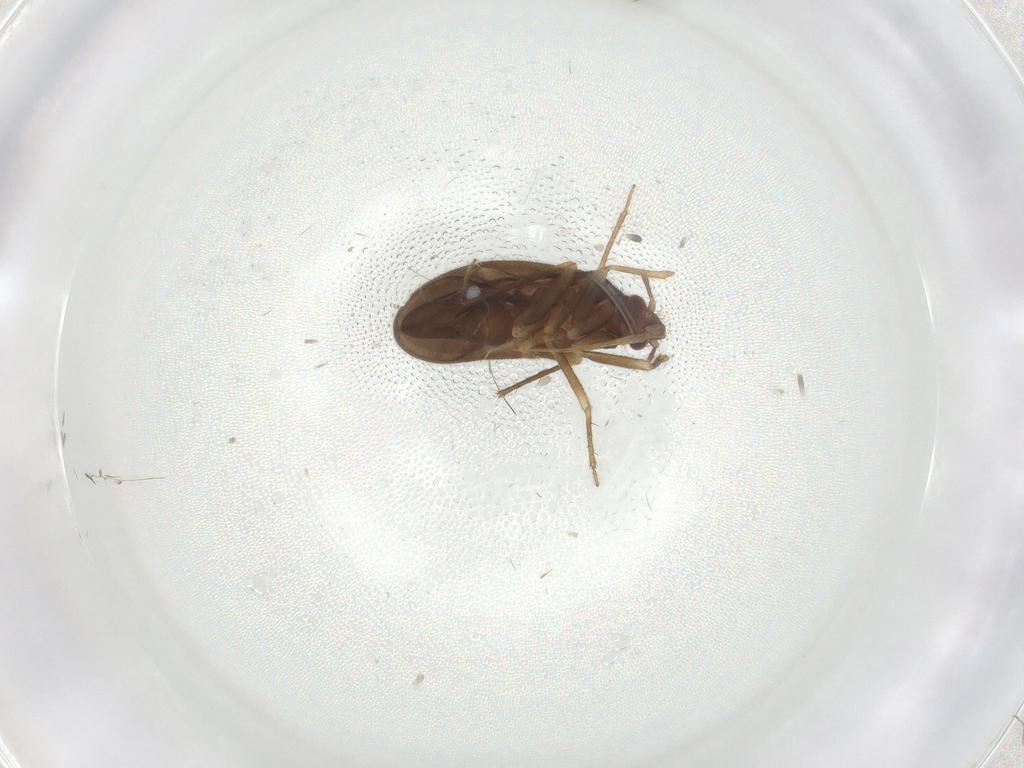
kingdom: Animalia
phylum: Arthropoda
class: Insecta
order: Hemiptera
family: Ceratocombidae
